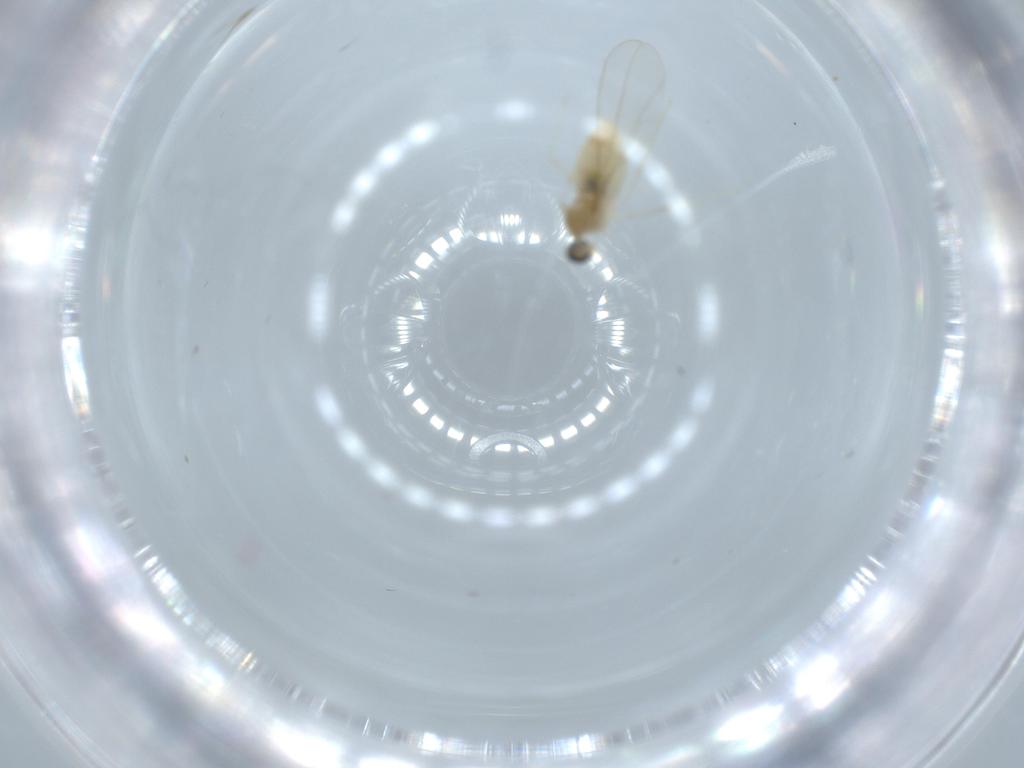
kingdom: Animalia
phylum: Arthropoda
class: Insecta
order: Diptera
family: Cecidomyiidae
